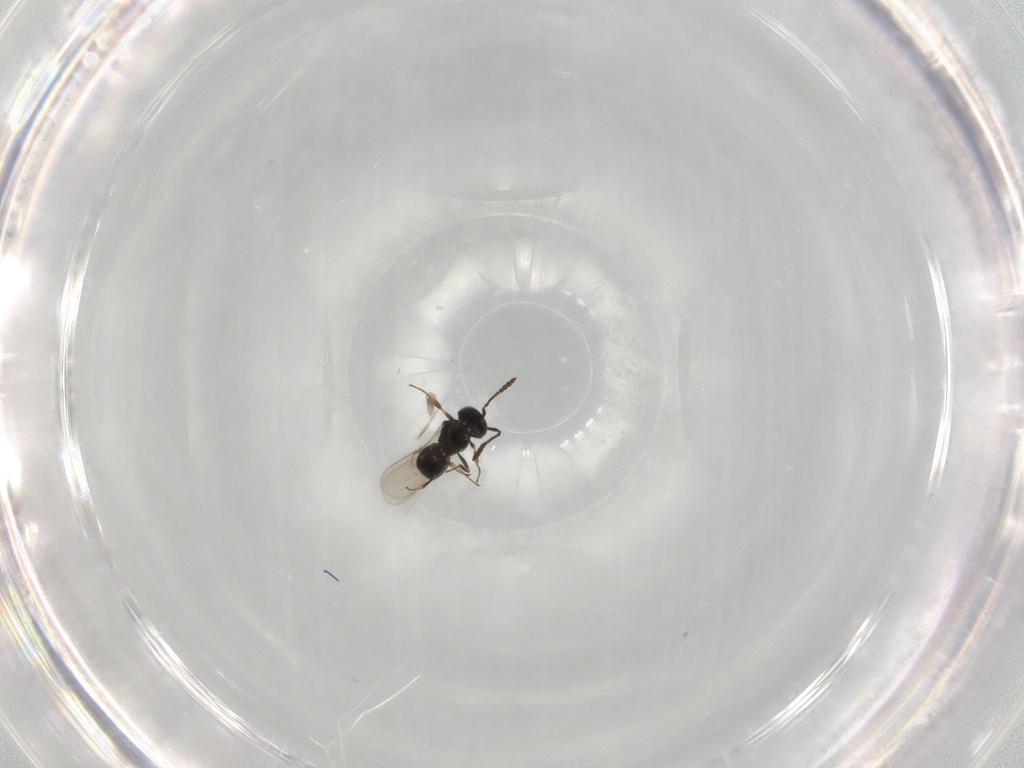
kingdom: Animalia
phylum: Arthropoda
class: Insecta
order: Hymenoptera
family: Scelionidae
